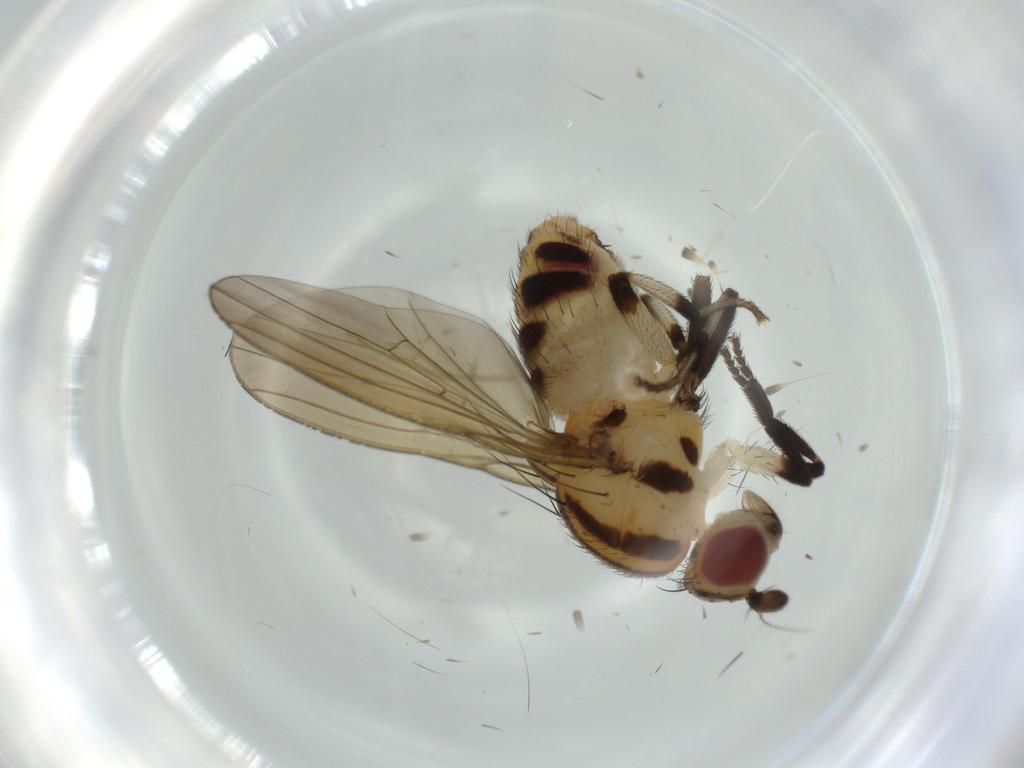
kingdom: Animalia
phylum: Arthropoda
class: Insecta
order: Diptera
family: Lauxaniidae
